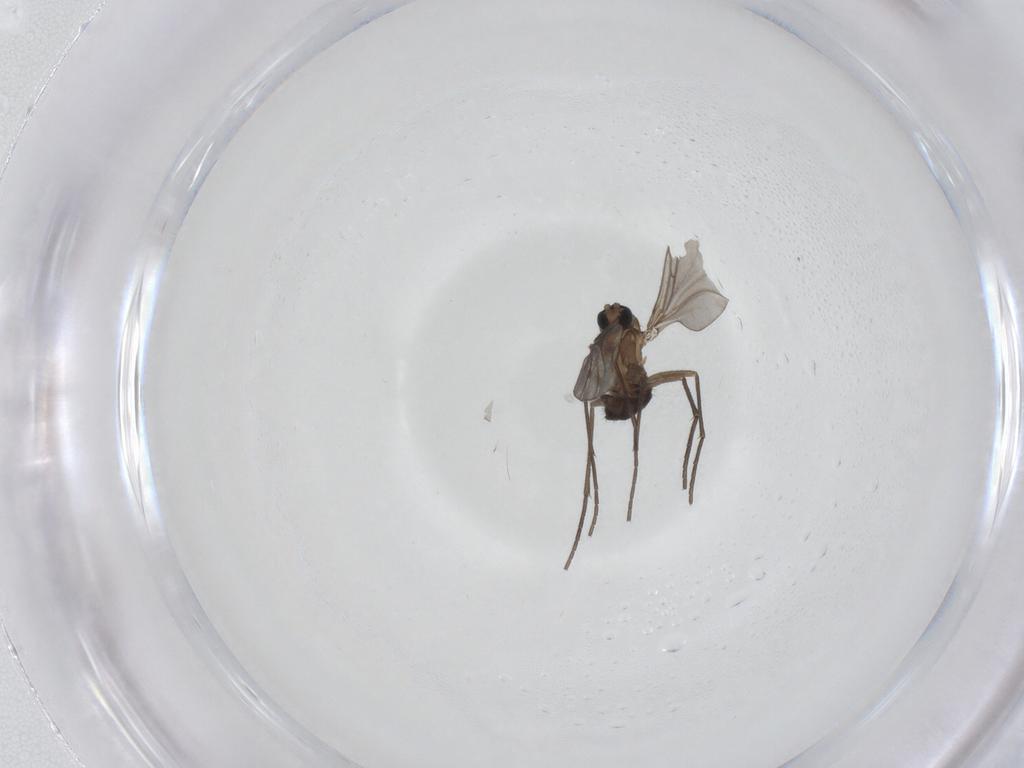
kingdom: Animalia
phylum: Arthropoda
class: Insecta
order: Diptera
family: Sciaridae
